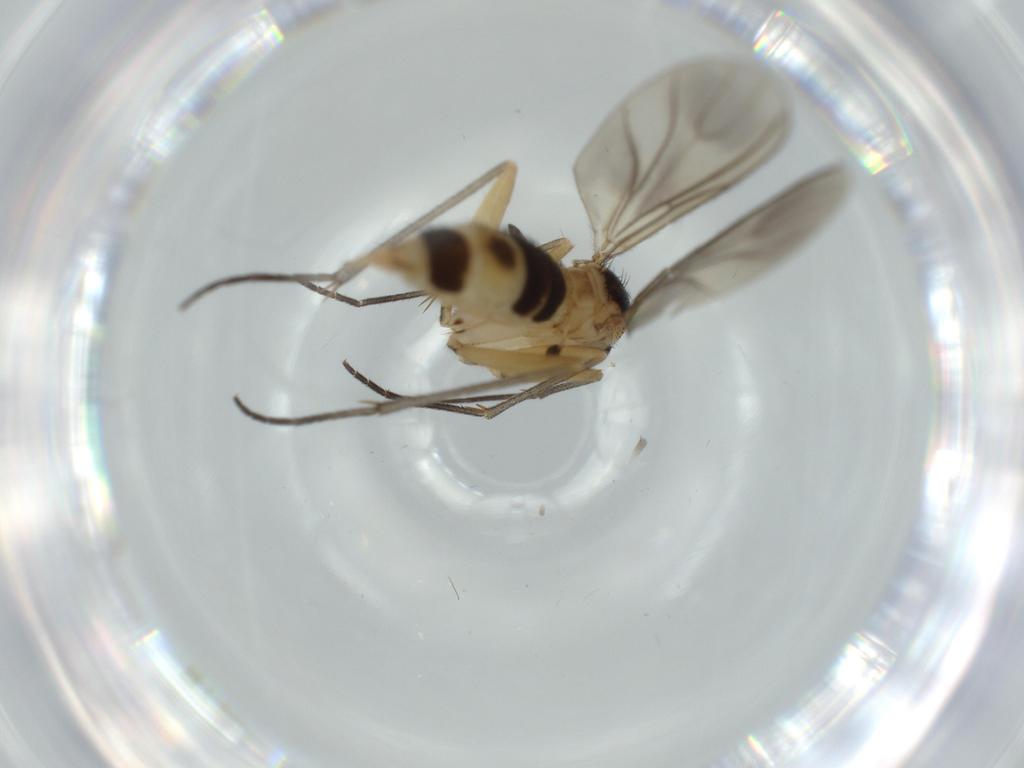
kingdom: Animalia
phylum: Arthropoda
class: Insecta
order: Diptera
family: Sciaridae
